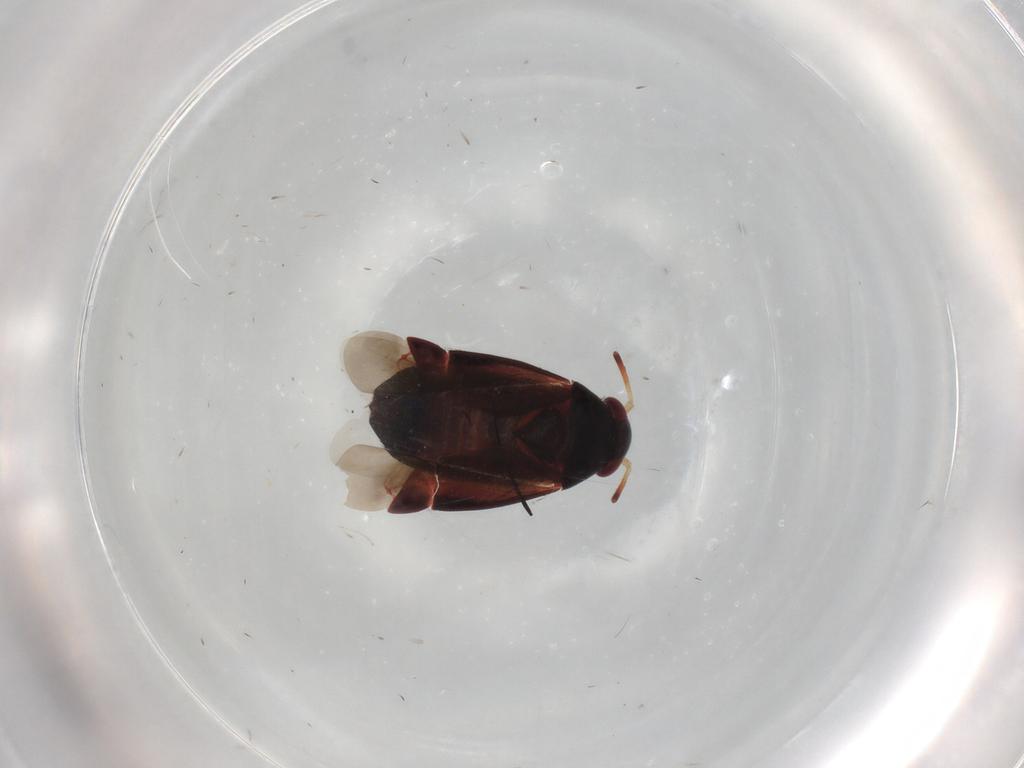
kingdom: Animalia
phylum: Arthropoda
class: Insecta
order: Hemiptera
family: Miridae
